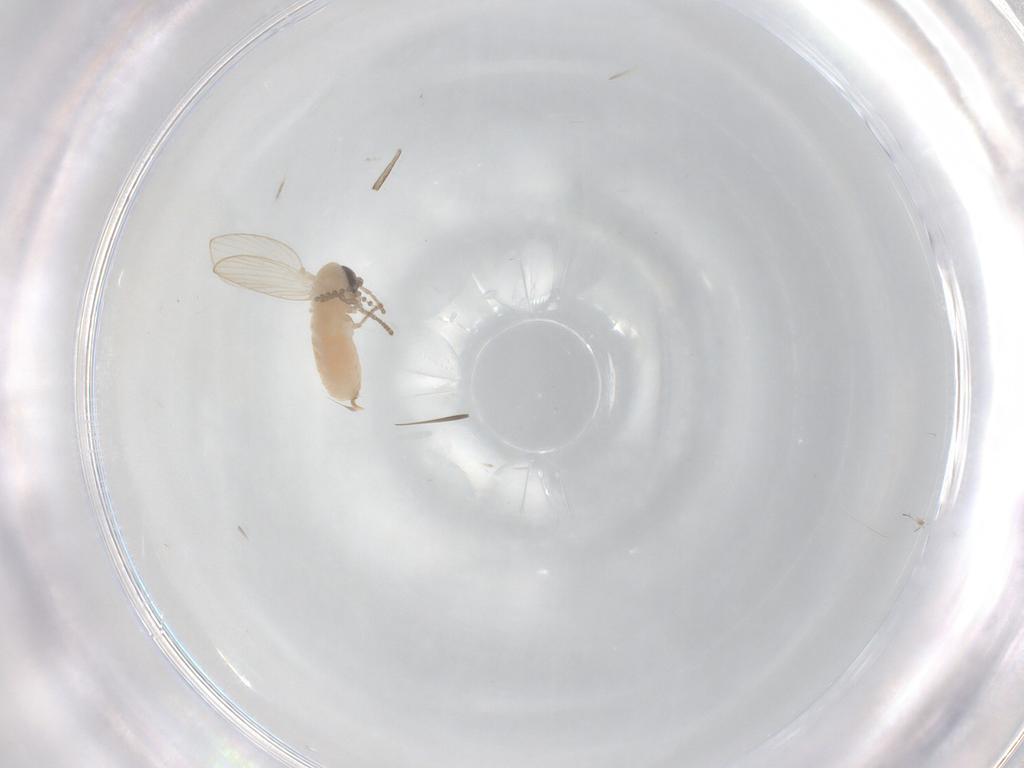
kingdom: Animalia
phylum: Arthropoda
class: Insecta
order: Diptera
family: Psychodidae
